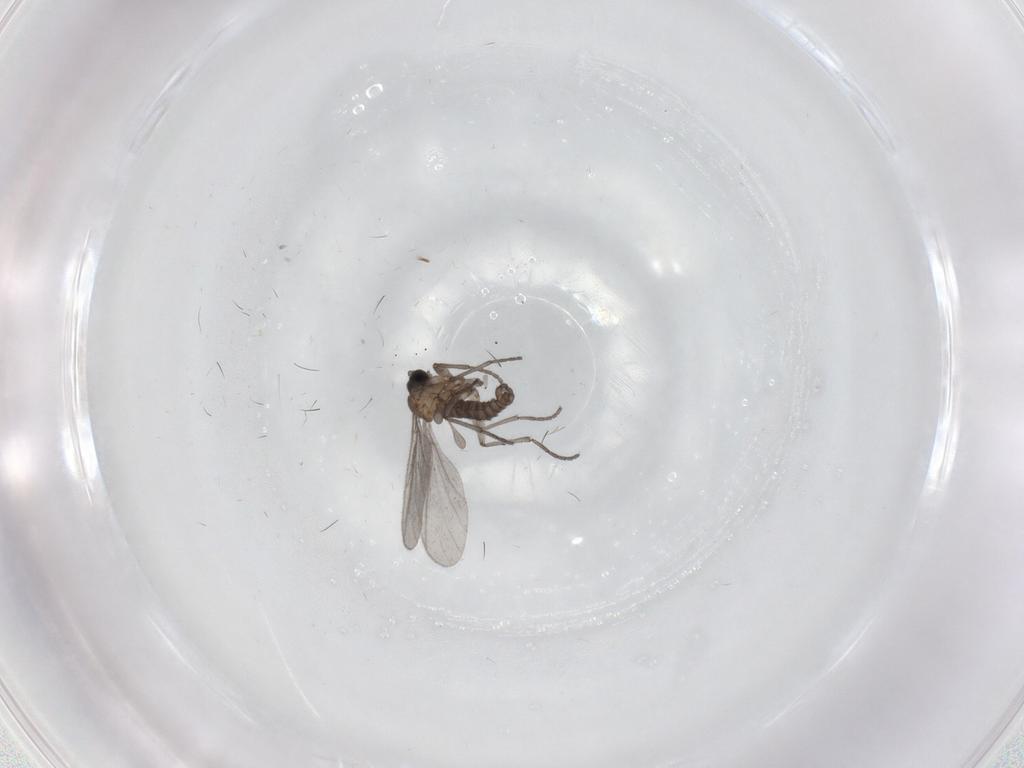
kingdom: Animalia
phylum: Arthropoda
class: Insecta
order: Diptera
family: Sciaridae
